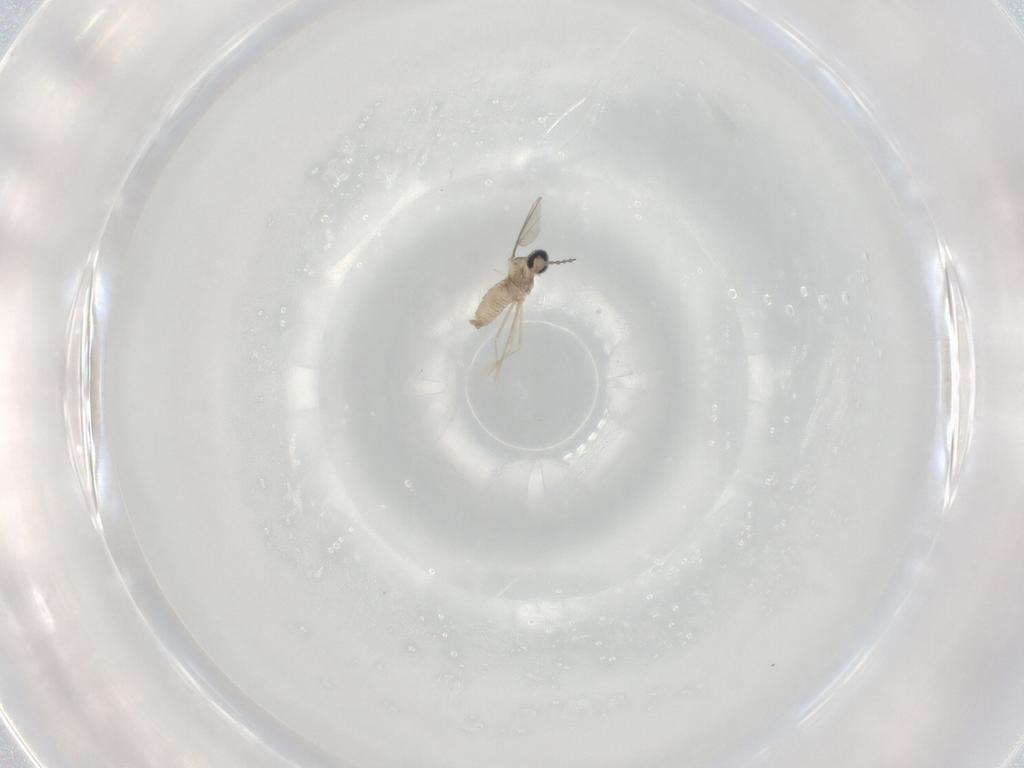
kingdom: Animalia
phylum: Arthropoda
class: Insecta
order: Diptera
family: Cecidomyiidae
